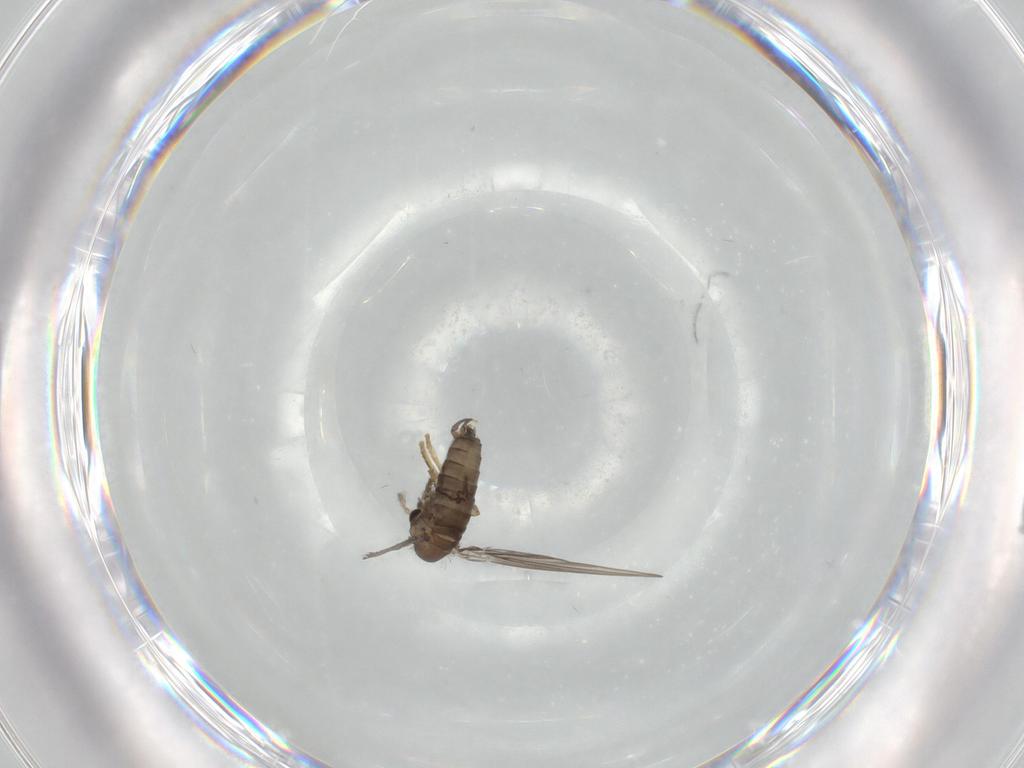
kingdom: Animalia
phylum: Arthropoda
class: Insecta
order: Diptera
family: Psychodidae
